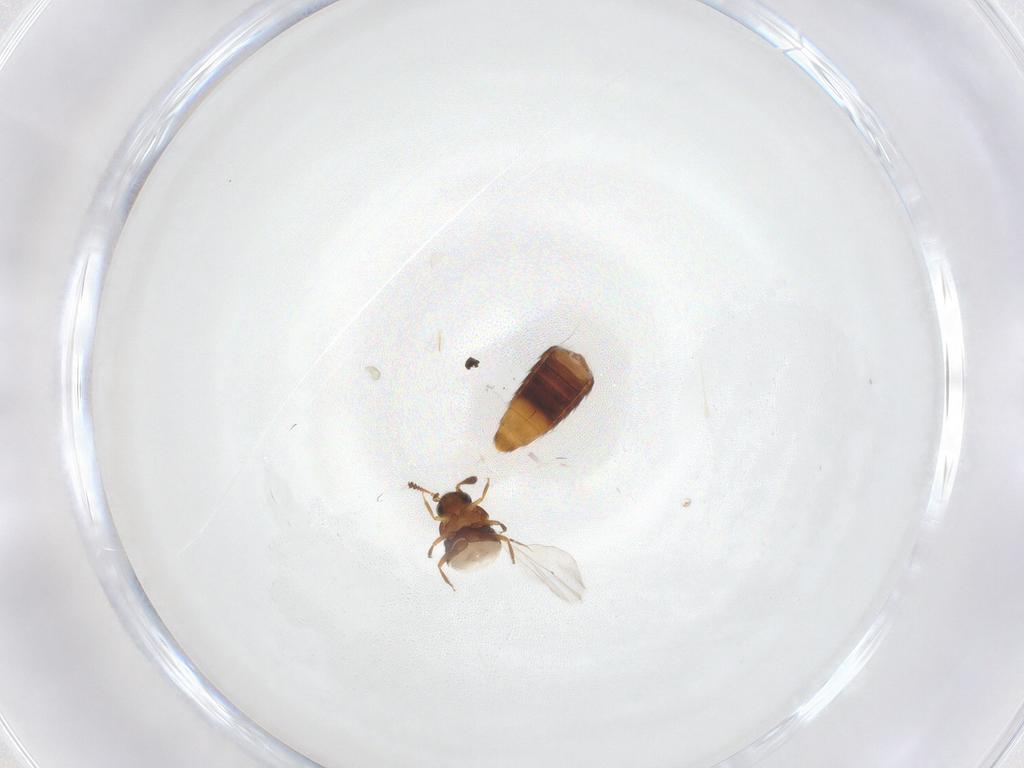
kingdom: Animalia
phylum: Arthropoda
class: Insecta
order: Coleoptera
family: Staphylinidae
